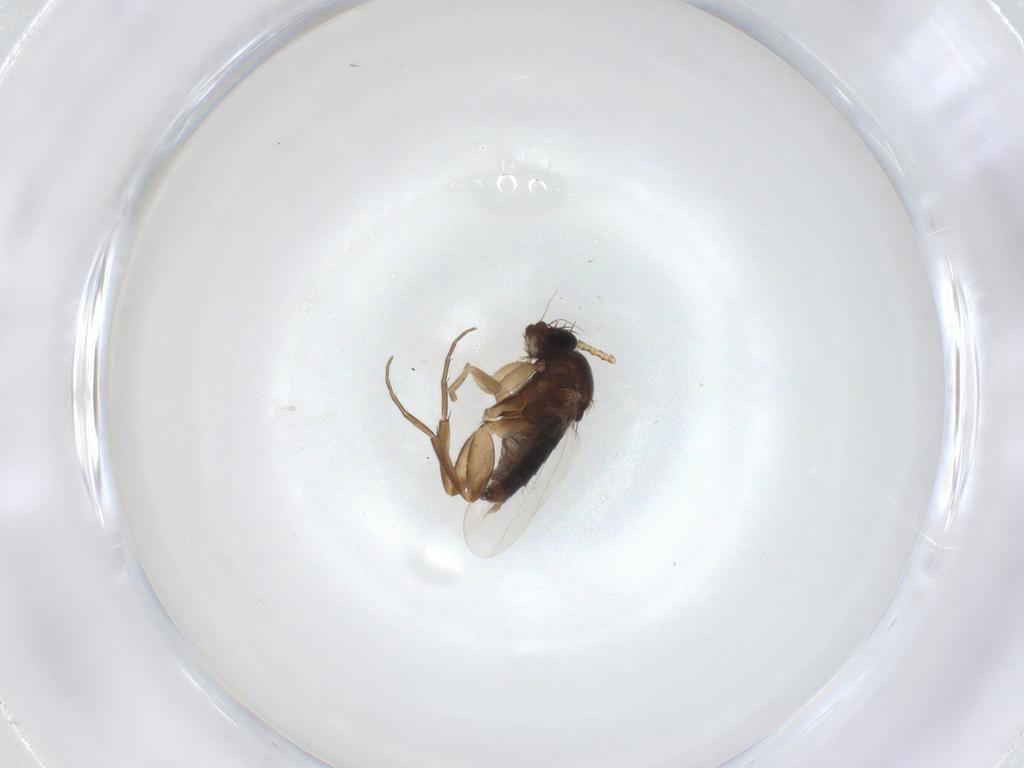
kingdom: Animalia
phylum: Arthropoda
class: Insecta
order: Diptera
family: Phoridae
